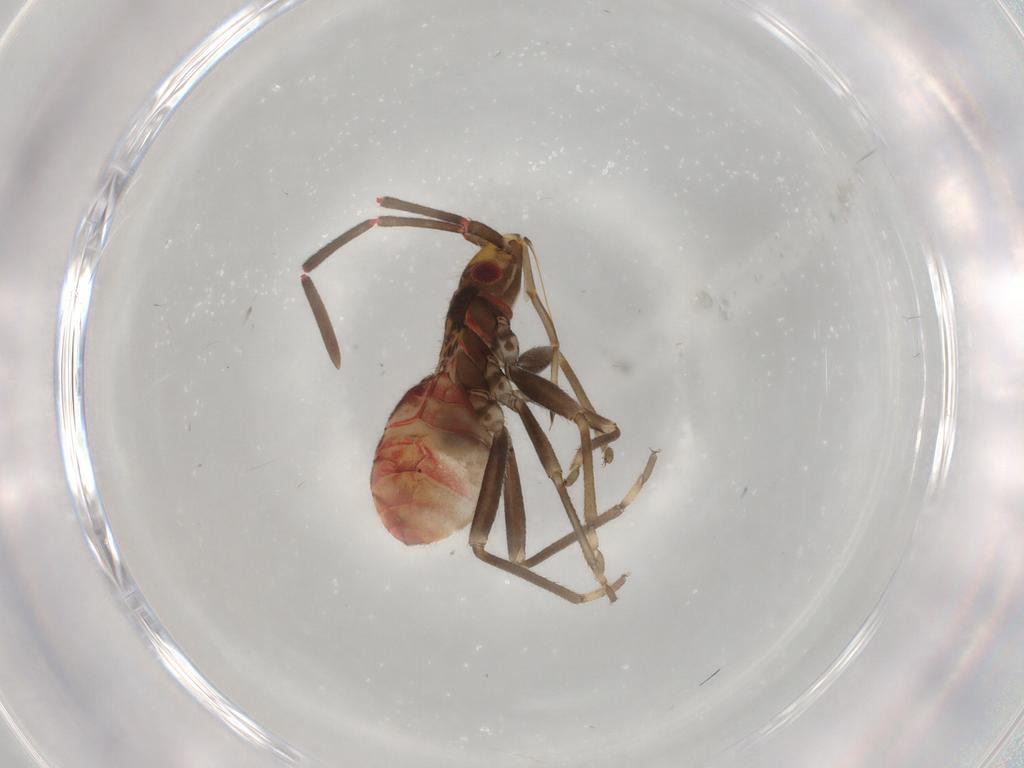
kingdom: Animalia
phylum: Arthropoda
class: Insecta
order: Hemiptera
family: Rhyparochromidae
